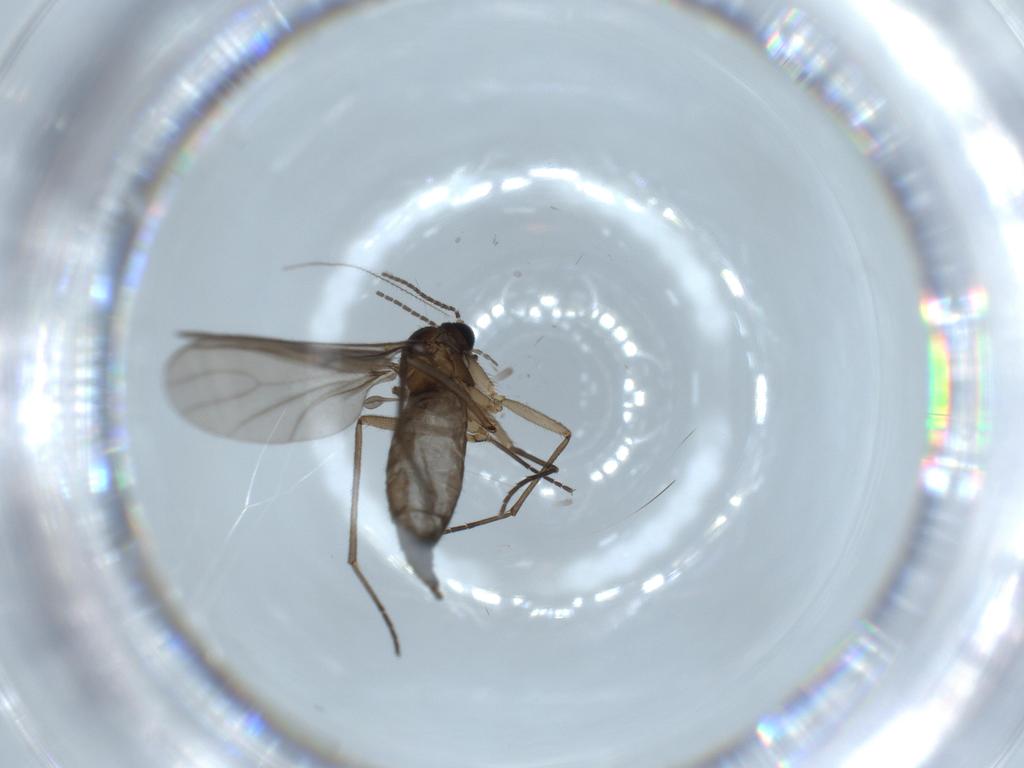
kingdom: Animalia
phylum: Arthropoda
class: Insecta
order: Diptera
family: Sciaridae
